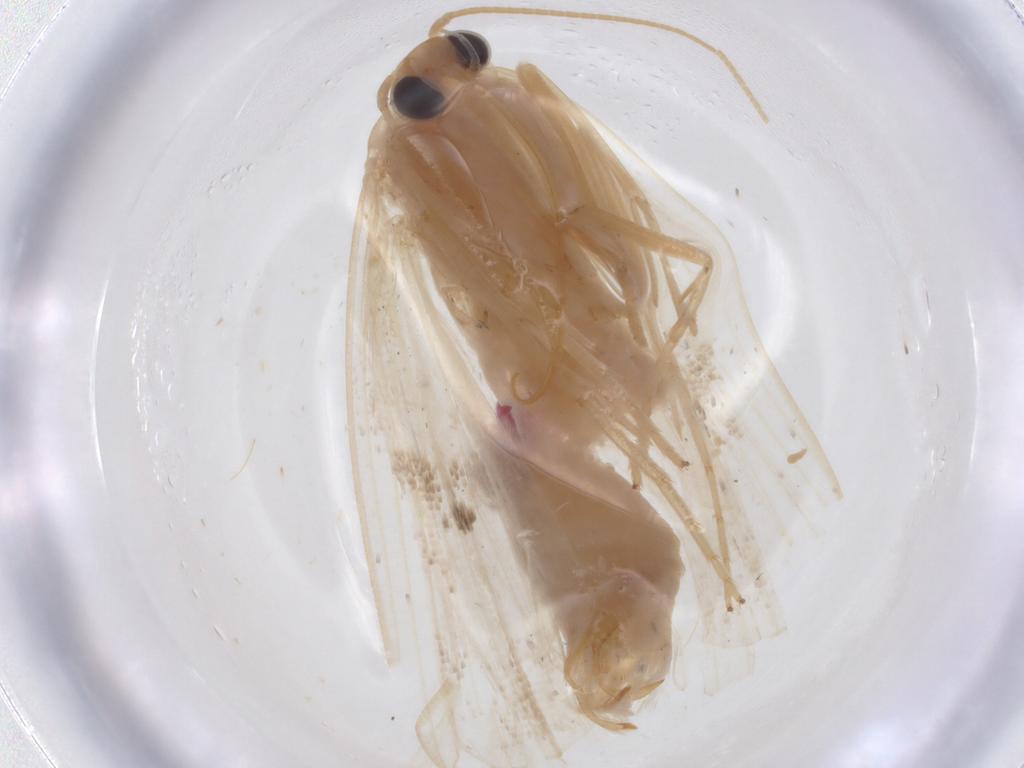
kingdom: Animalia
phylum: Arthropoda
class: Insecta
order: Lepidoptera
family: Erebidae
